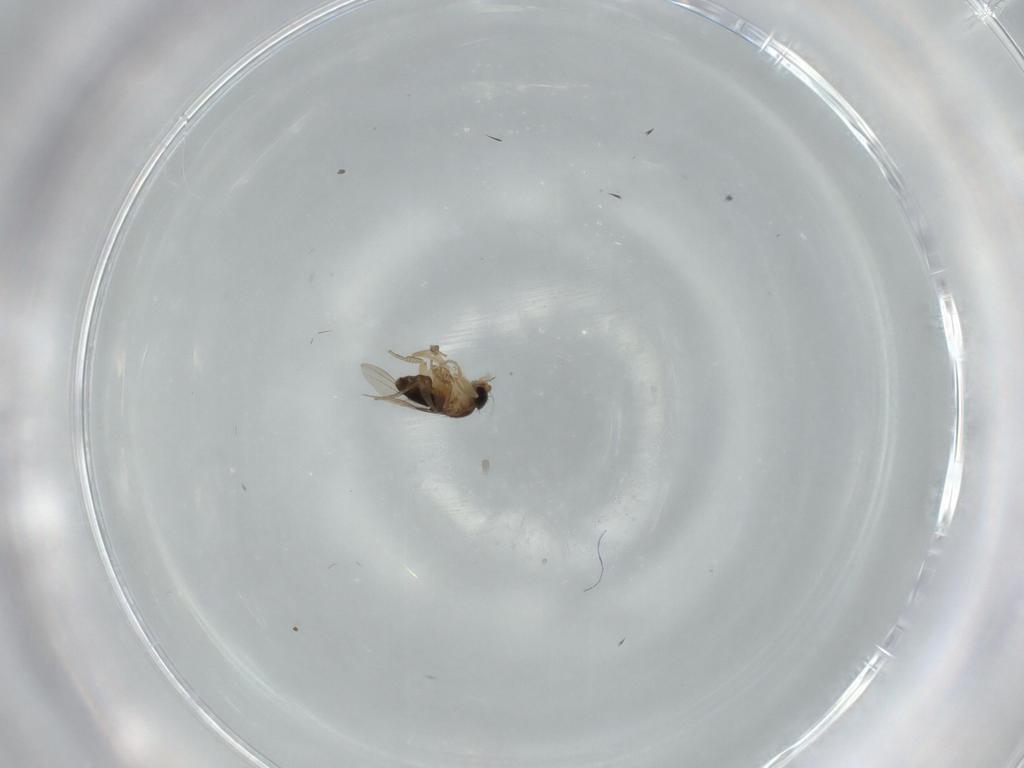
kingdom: Animalia
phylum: Arthropoda
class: Insecta
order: Diptera
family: Phoridae
